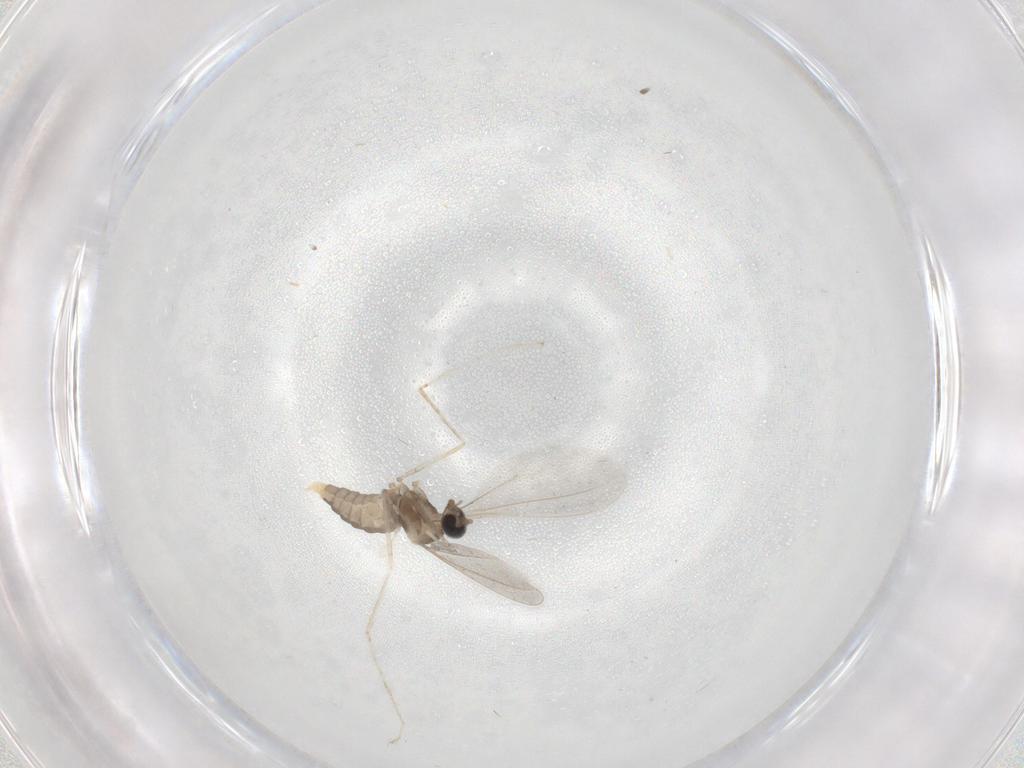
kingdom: Animalia
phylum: Arthropoda
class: Insecta
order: Diptera
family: Cecidomyiidae
